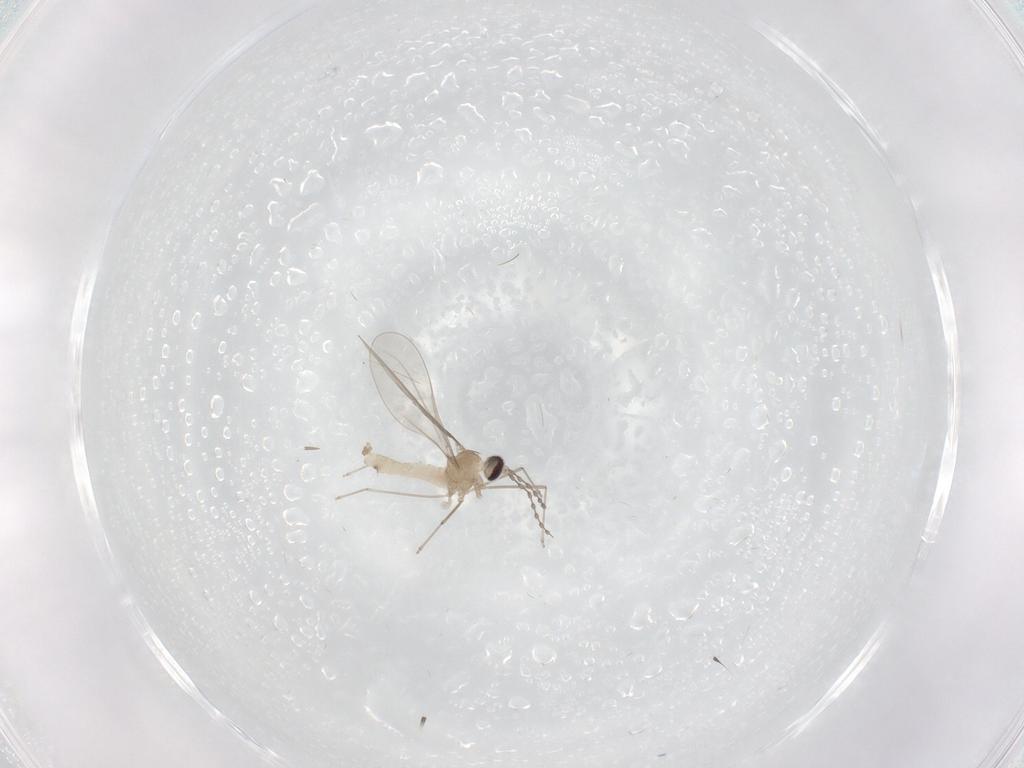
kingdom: Animalia
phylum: Arthropoda
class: Insecta
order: Diptera
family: Cecidomyiidae
